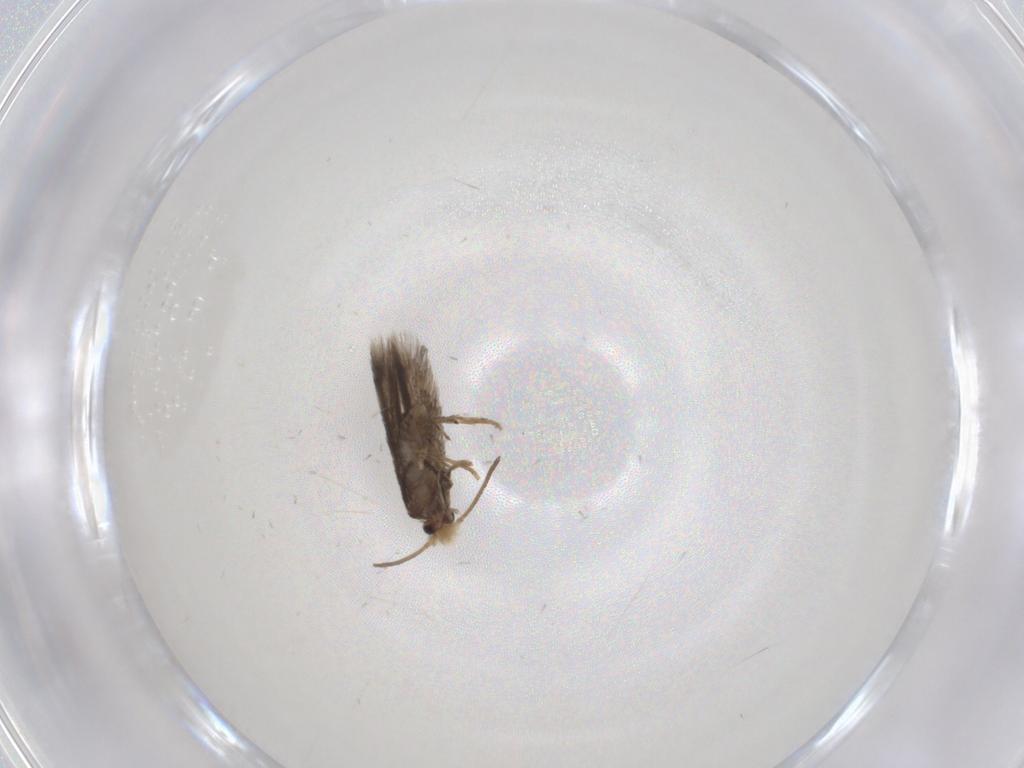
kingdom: Animalia
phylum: Arthropoda
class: Insecta
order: Lepidoptera
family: Nepticulidae
